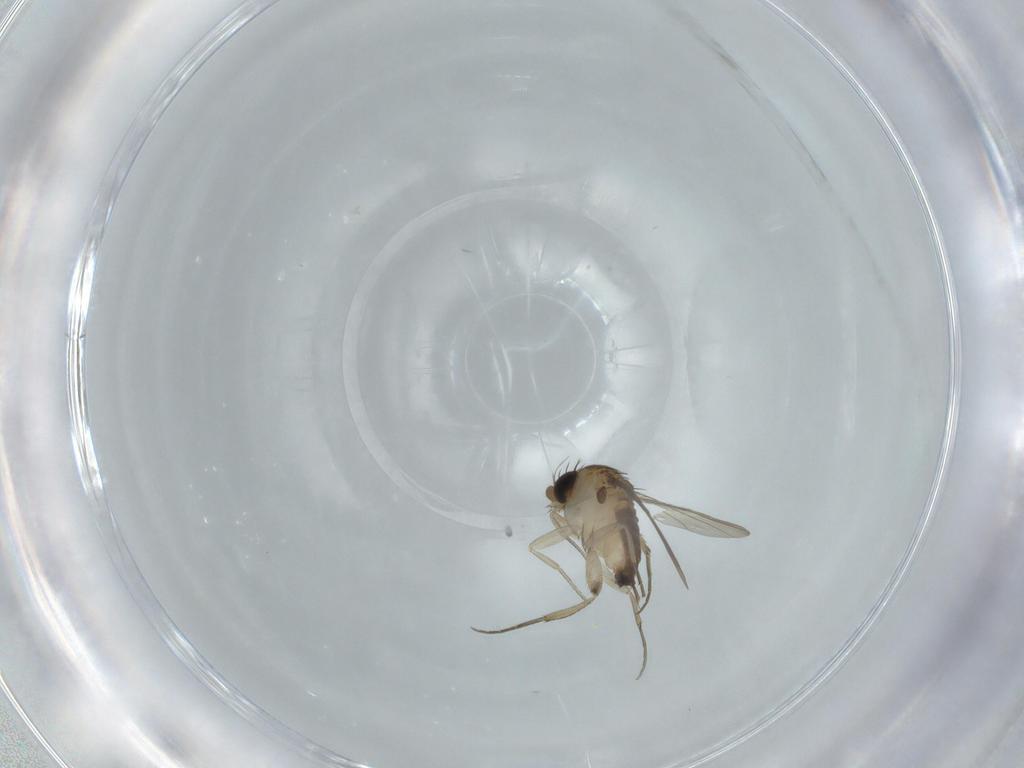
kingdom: Animalia
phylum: Arthropoda
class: Insecta
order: Diptera
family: Phoridae
